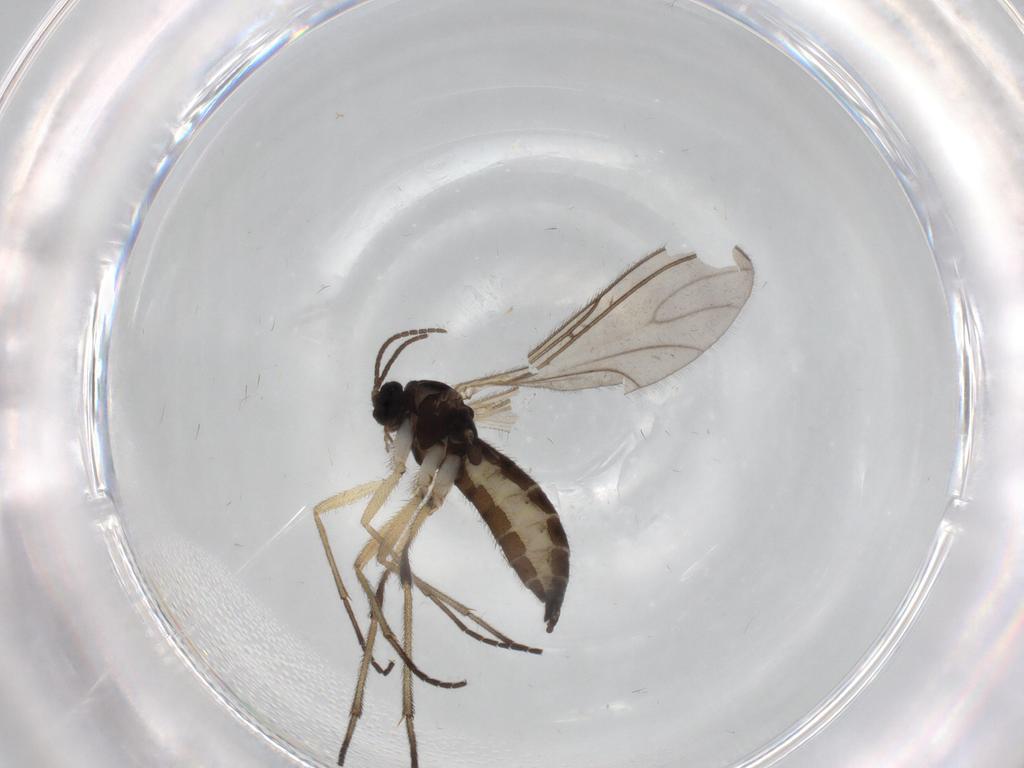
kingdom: Animalia
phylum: Arthropoda
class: Insecta
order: Diptera
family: Sciaridae
